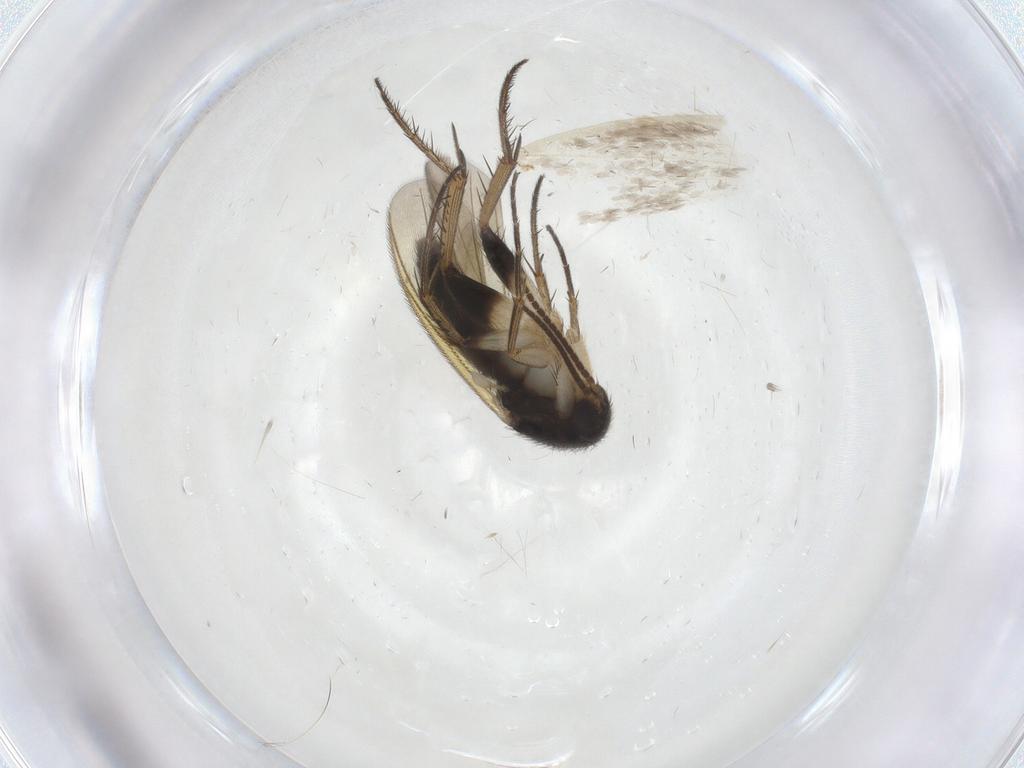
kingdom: Animalia
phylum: Arthropoda
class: Insecta
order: Diptera
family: Mycetophilidae
